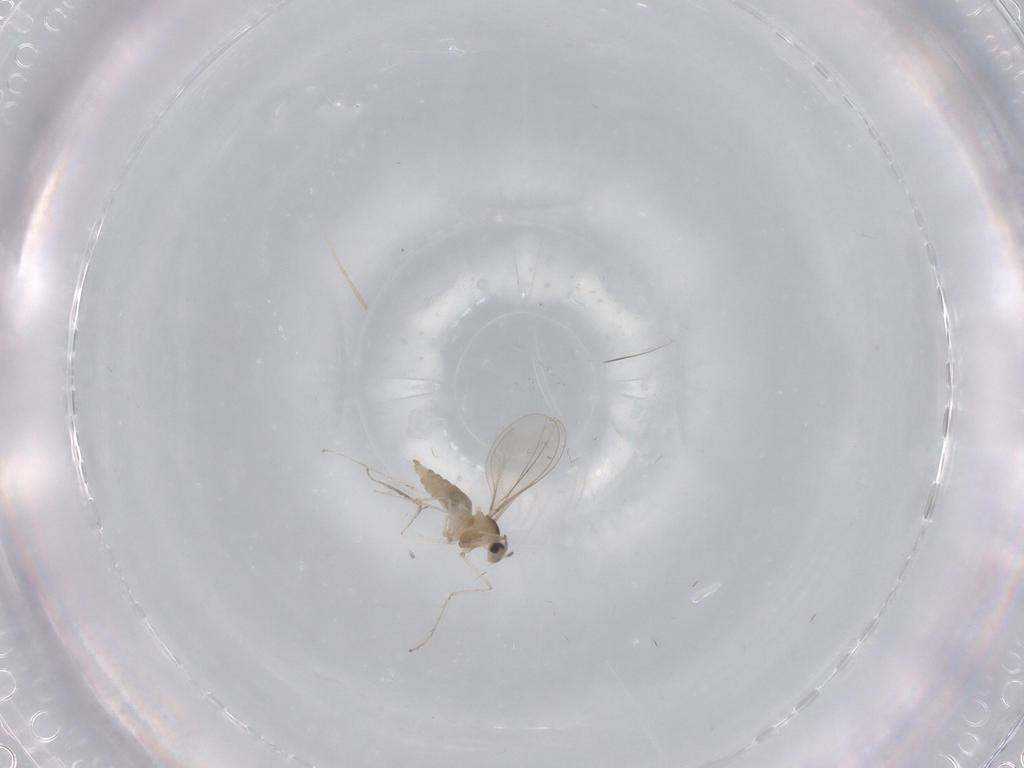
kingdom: Animalia
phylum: Arthropoda
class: Insecta
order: Diptera
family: Cecidomyiidae
